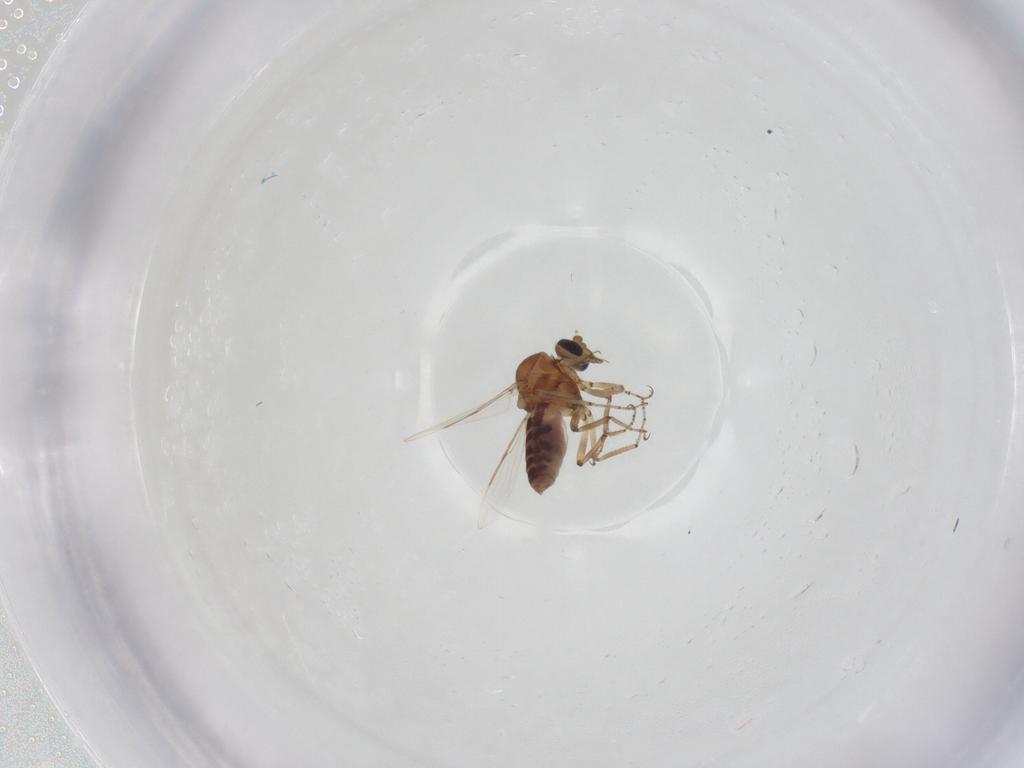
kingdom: Animalia
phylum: Arthropoda
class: Insecta
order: Diptera
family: Ceratopogonidae
